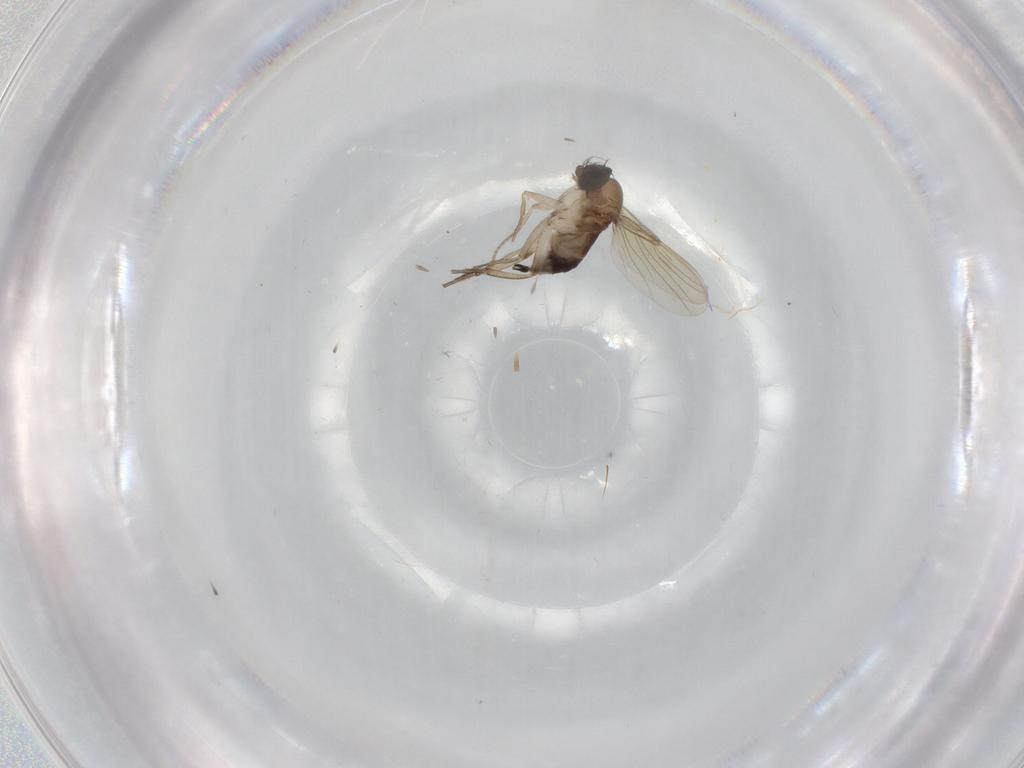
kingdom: Animalia
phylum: Arthropoda
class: Insecta
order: Diptera
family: Phoridae
